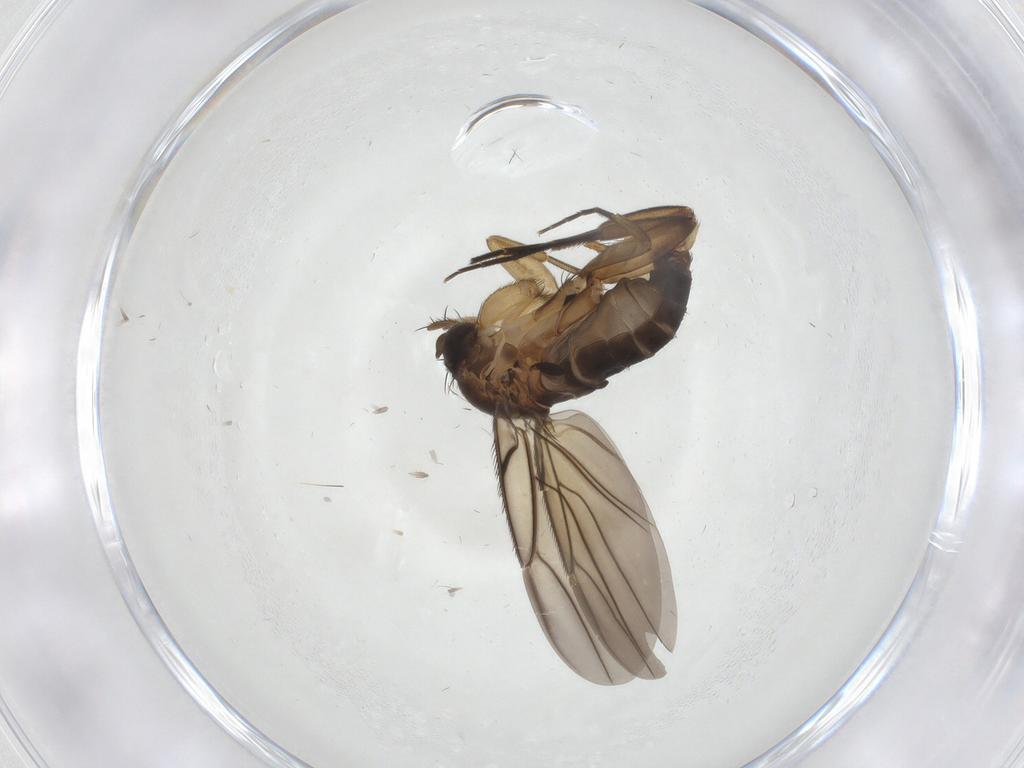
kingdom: Animalia
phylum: Arthropoda
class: Insecta
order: Diptera
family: Phoridae
